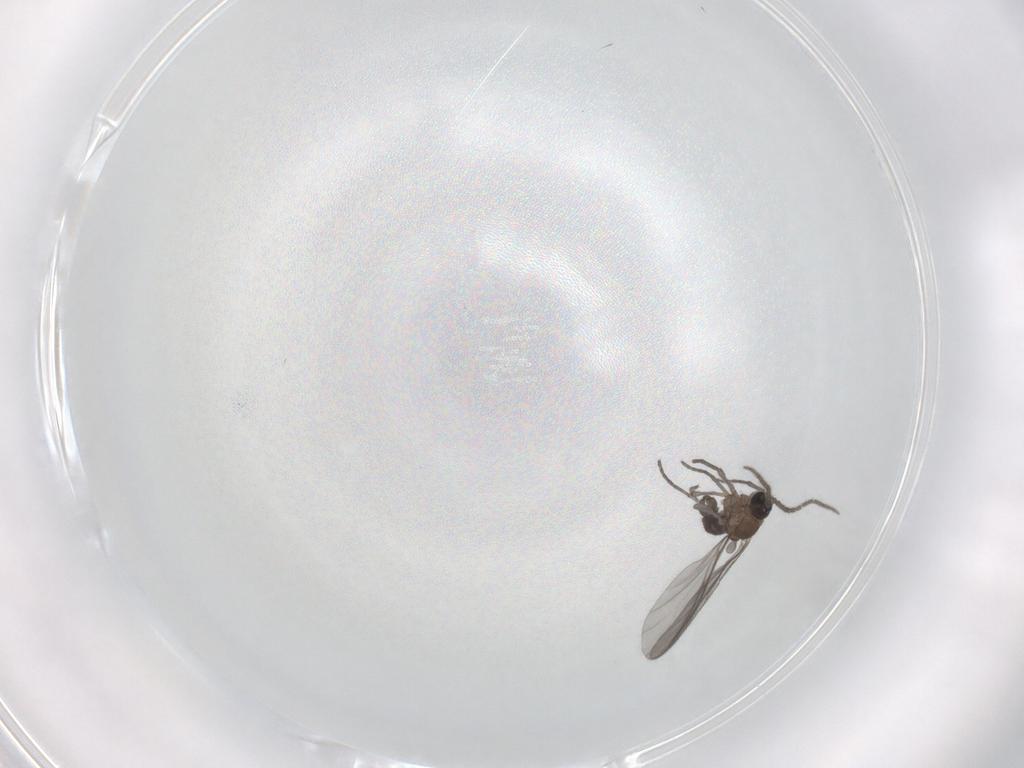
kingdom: Animalia
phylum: Arthropoda
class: Insecta
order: Diptera
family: Sciaridae
